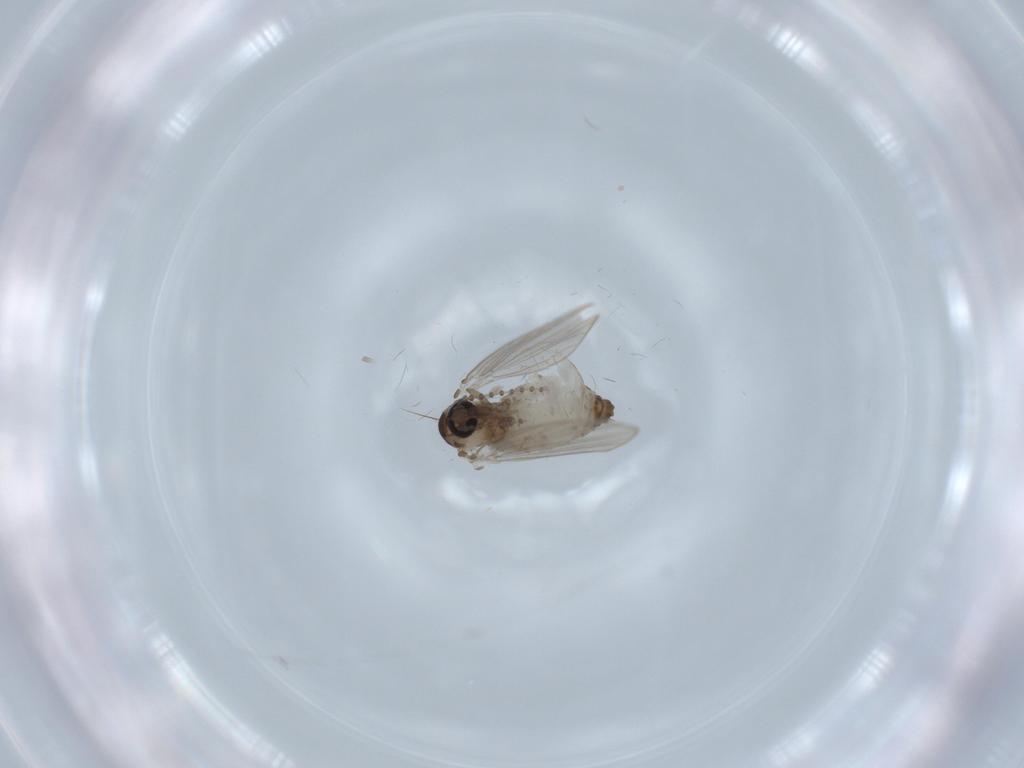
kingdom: Animalia
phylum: Arthropoda
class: Insecta
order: Diptera
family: Psychodidae
